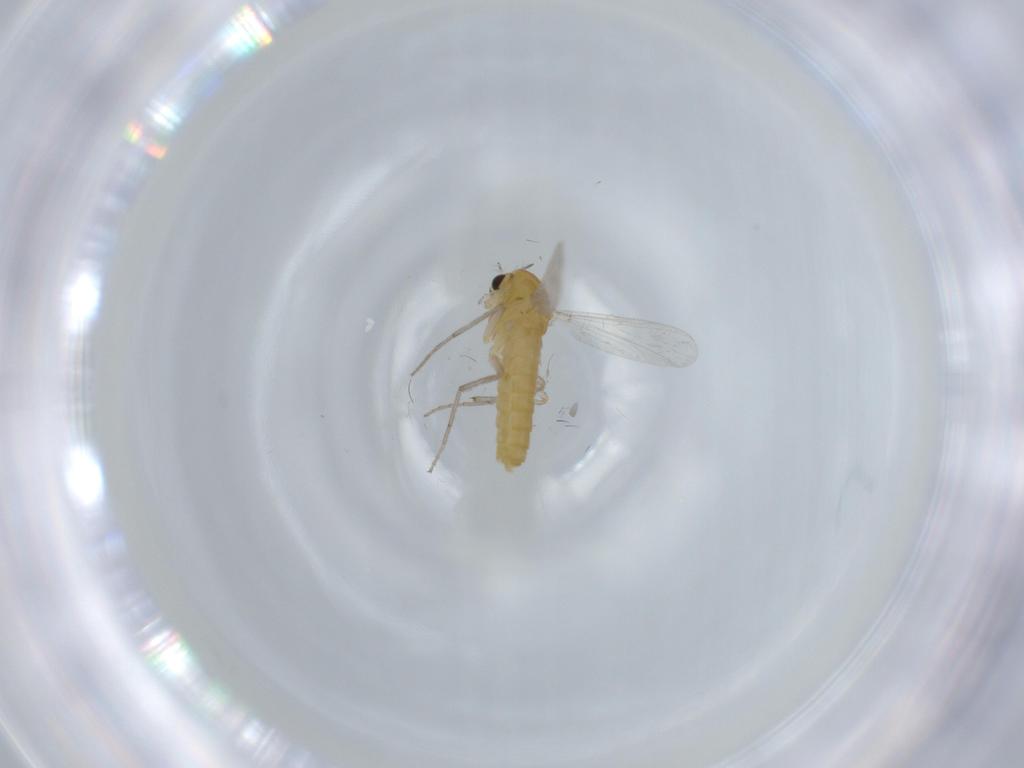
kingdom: Animalia
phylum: Arthropoda
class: Insecta
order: Diptera
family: Chironomidae
